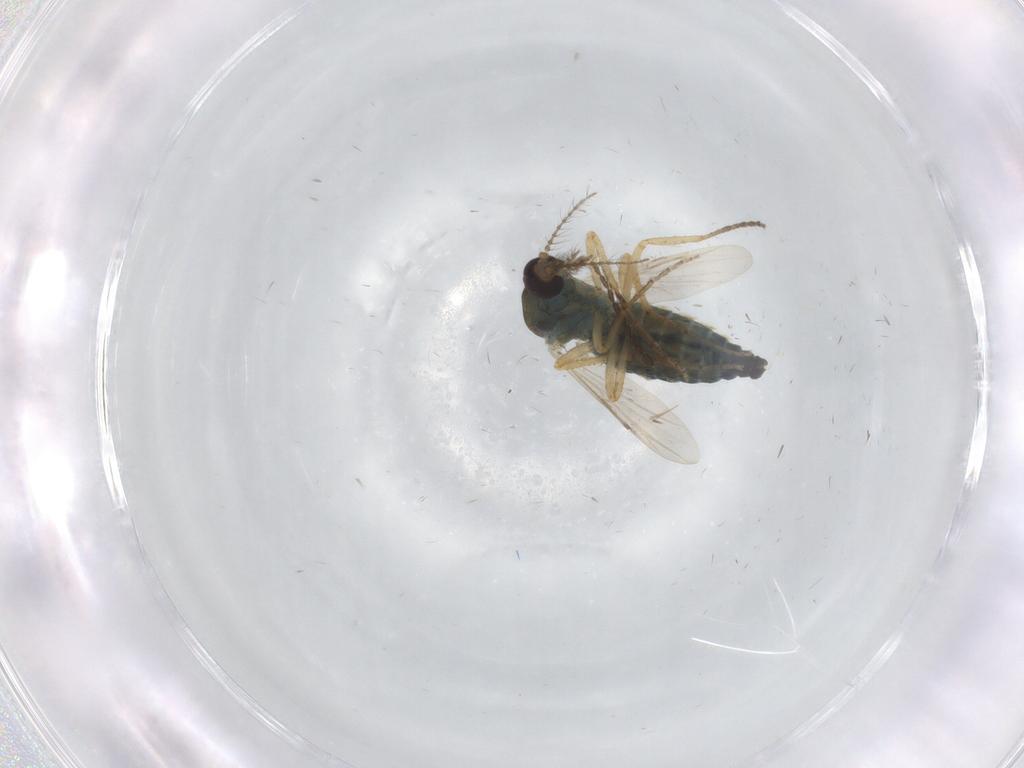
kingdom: Animalia
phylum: Arthropoda
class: Insecta
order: Diptera
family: Ceratopogonidae
